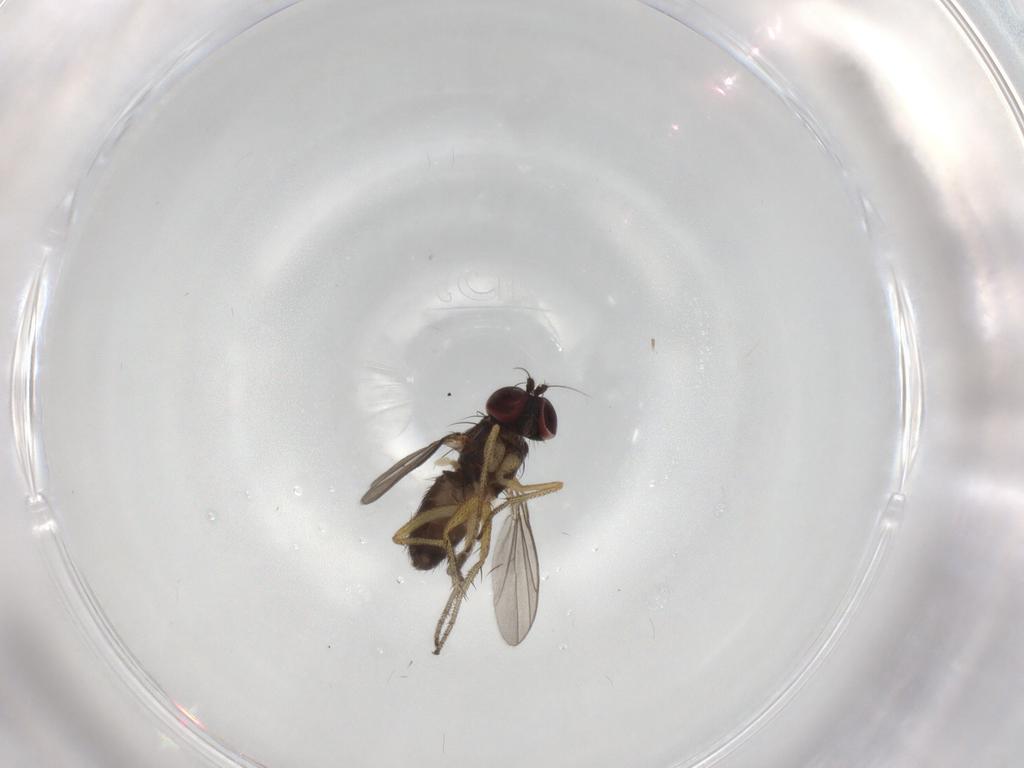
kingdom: Animalia
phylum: Arthropoda
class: Insecta
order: Diptera
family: Dolichopodidae
